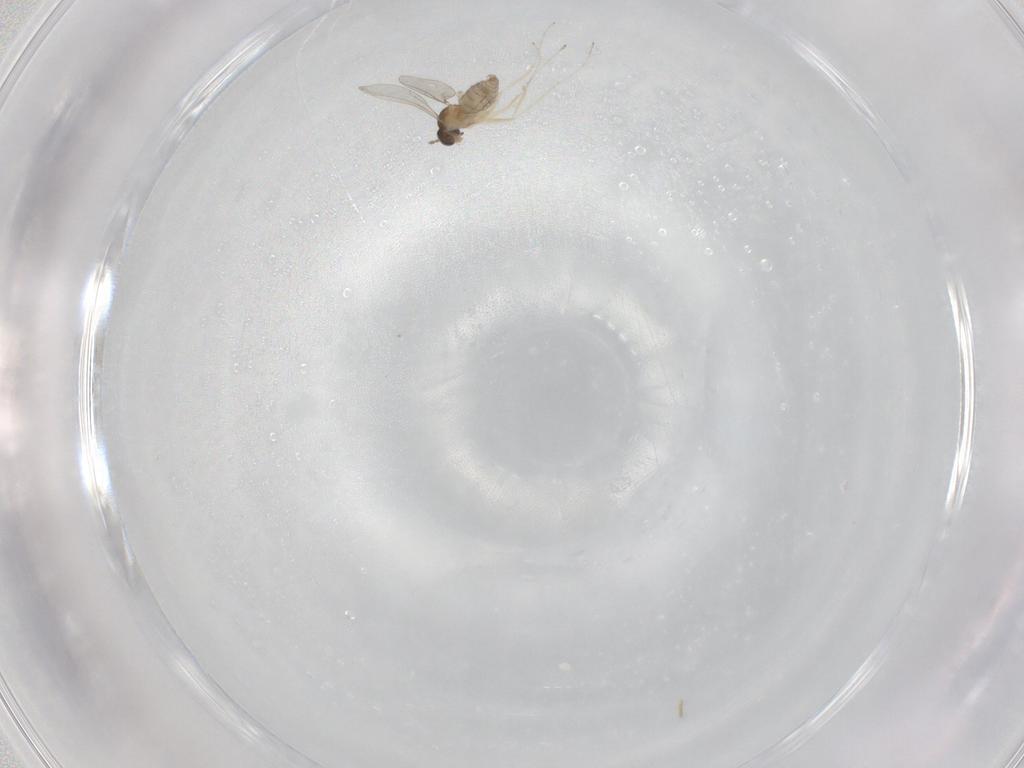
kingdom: Animalia
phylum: Arthropoda
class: Insecta
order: Diptera
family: Cecidomyiidae
